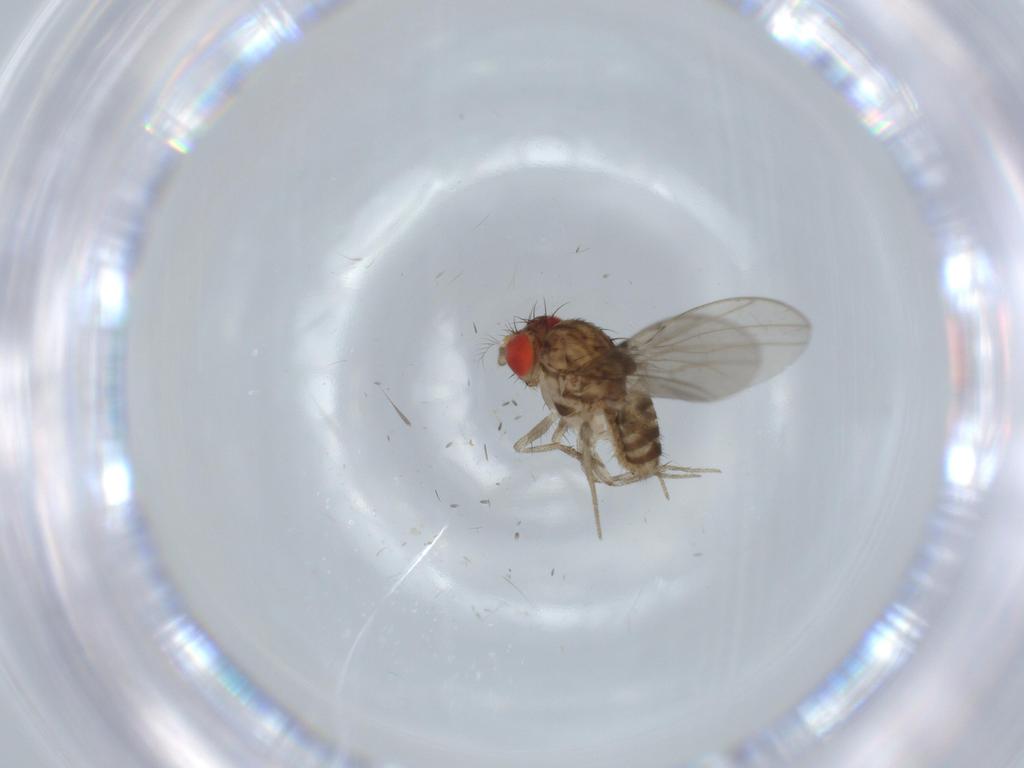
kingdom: Animalia
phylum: Arthropoda
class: Insecta
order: Diptera
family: Drosophilidae
